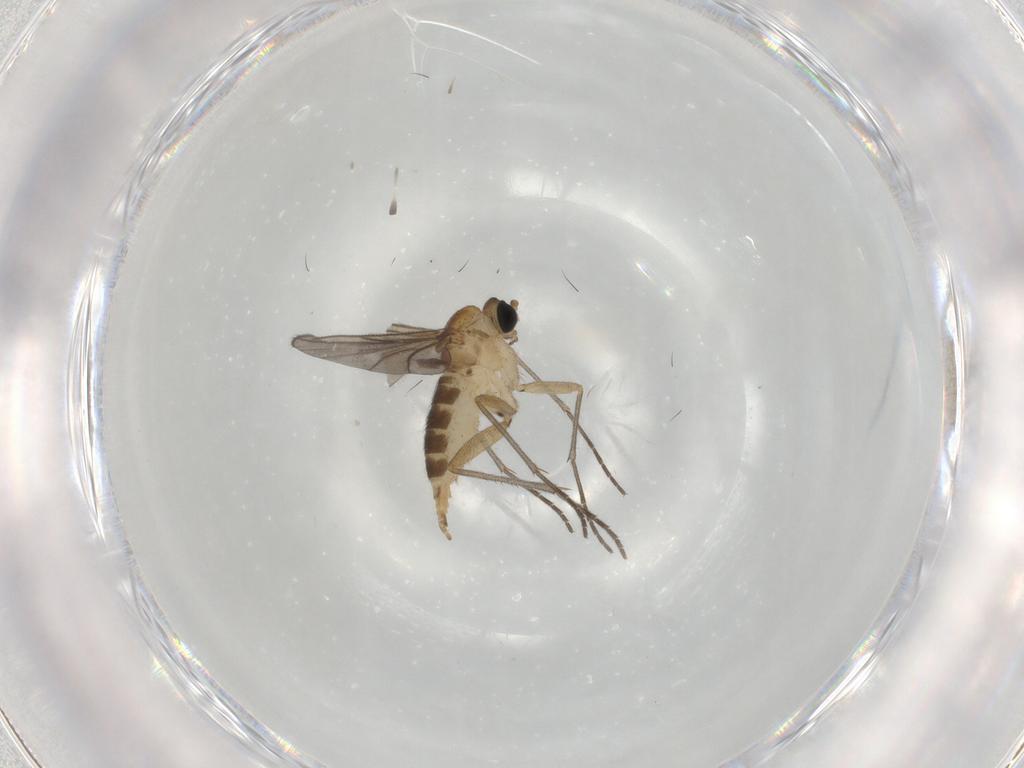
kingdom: Animalia
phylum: Arthropoda
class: Insecta
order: Diptera
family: Sciaridae
